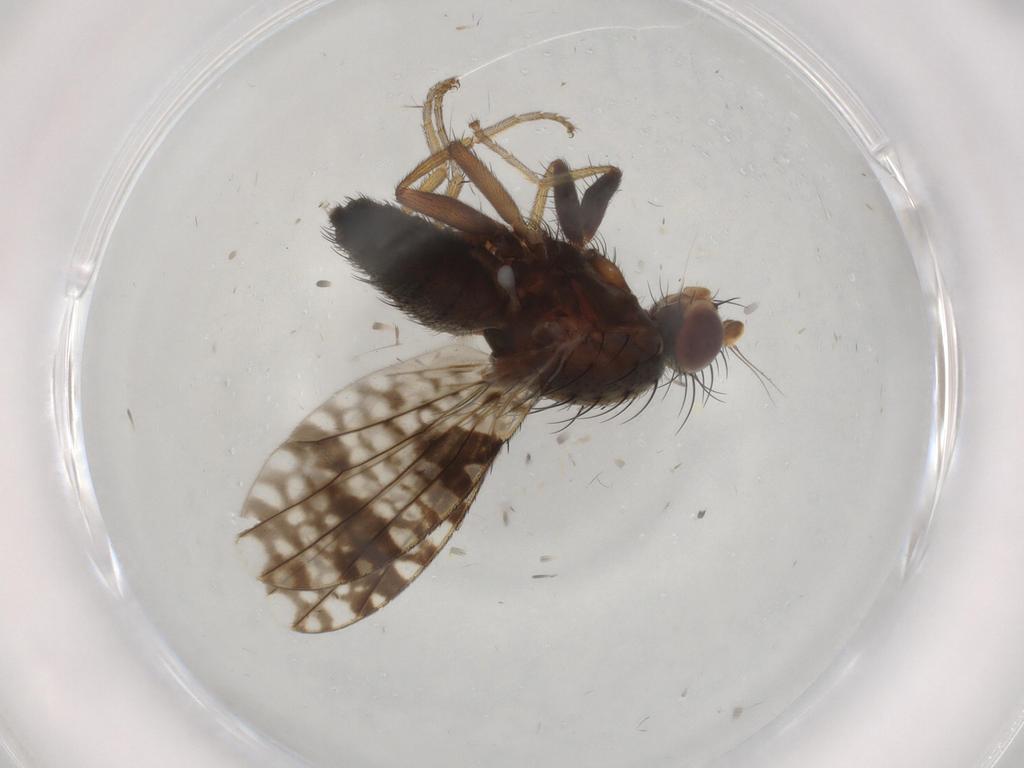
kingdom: Animalia
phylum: Arthropoda
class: Insecta
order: Diptera
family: Tephritidae
